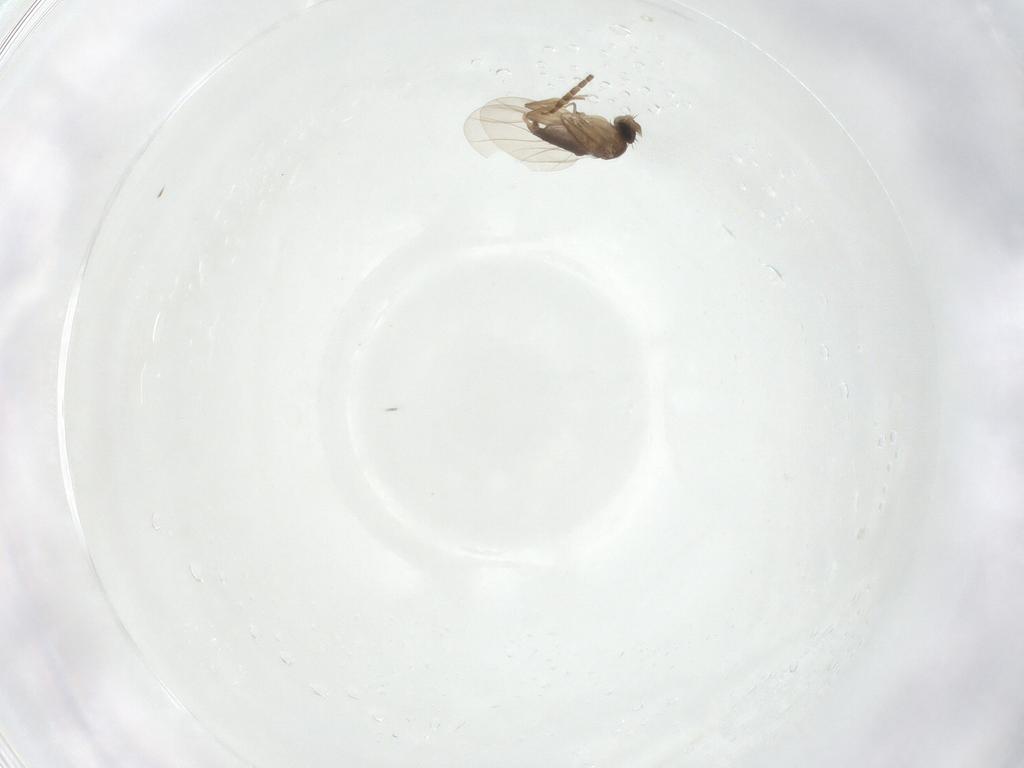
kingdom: Animalia
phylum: Arthropoda
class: Insecta
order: Diptera
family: Sciaridae
